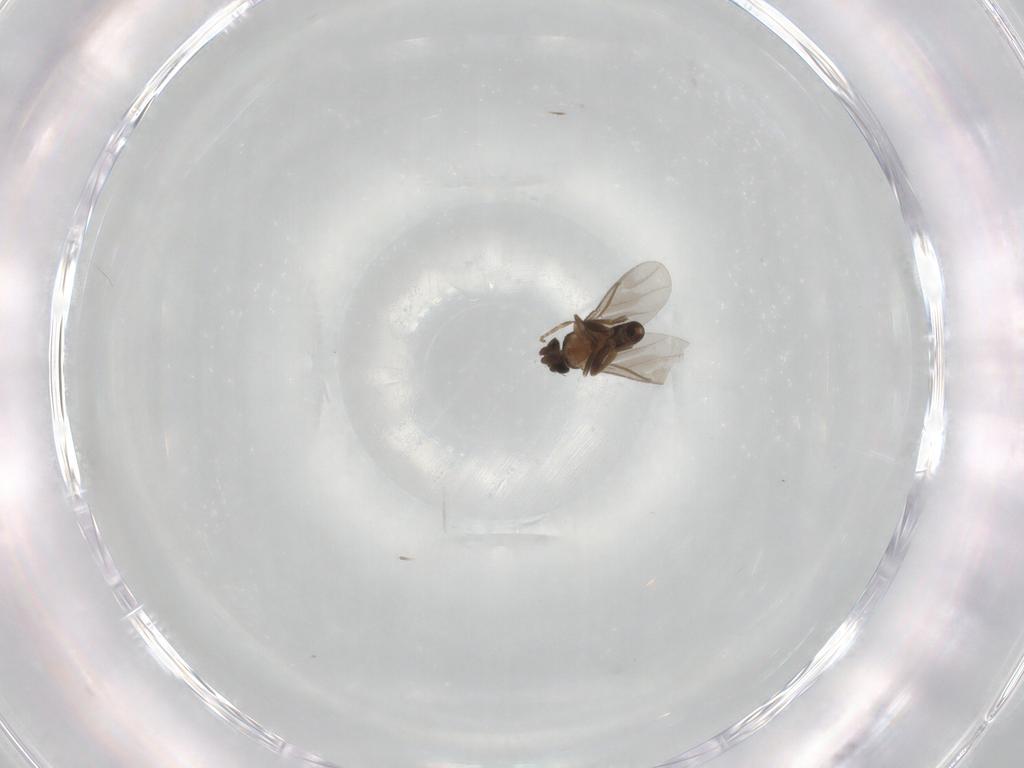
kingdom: Animalia
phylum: Arthropoda
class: Insecta
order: Diptera
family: Sciaridae
